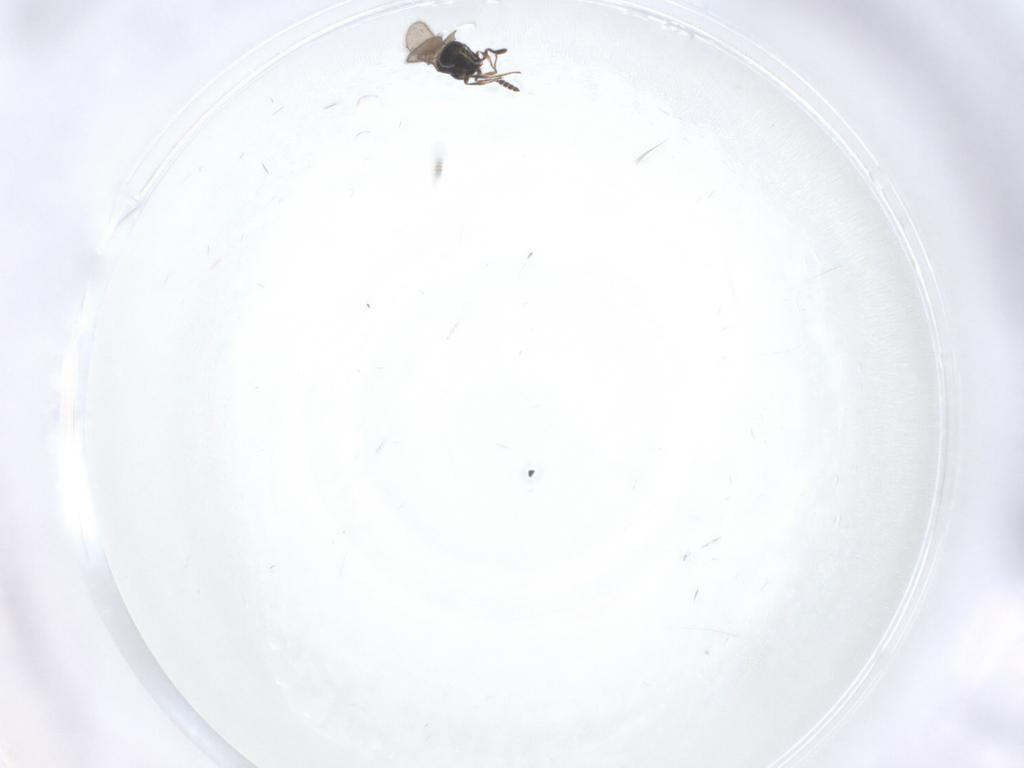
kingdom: Animalia
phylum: Arthropoda
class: Insecta
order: Hymenoptera
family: Scelionidae
